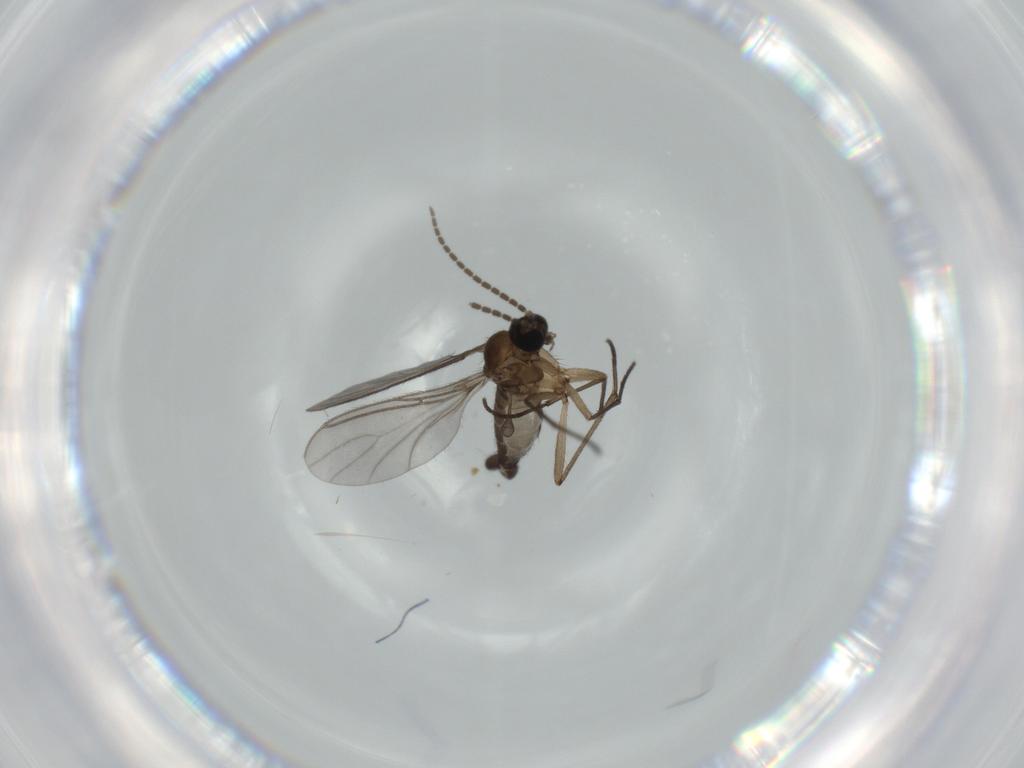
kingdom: Animalia
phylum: Arthropoda
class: Insecta
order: Diptera
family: Sciaridae
